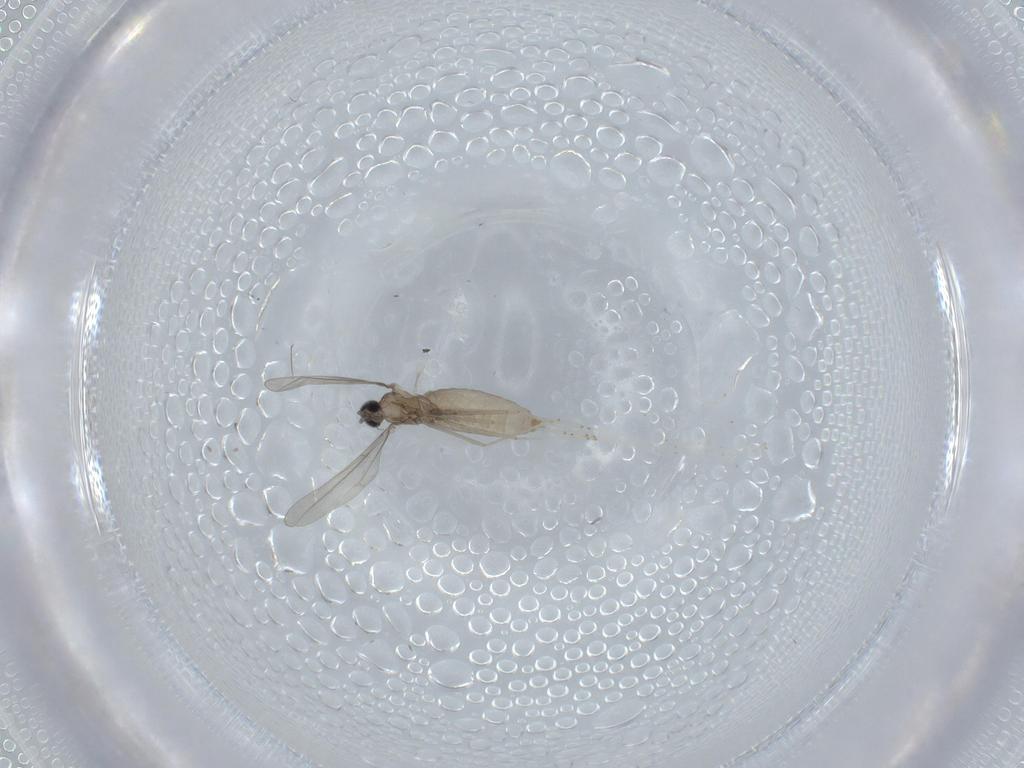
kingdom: Animalia
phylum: Arthropoda
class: Insecta
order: Diptera
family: Cecidomyiidae
